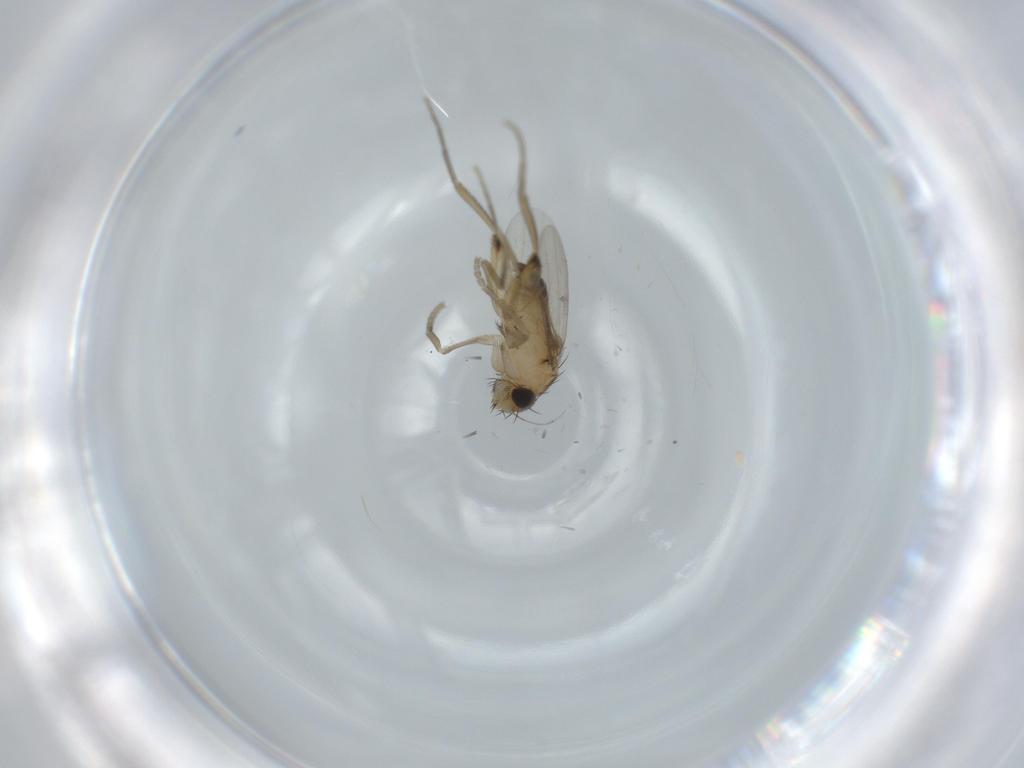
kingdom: Animalia
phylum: Arthropoda
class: Insecta
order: Diptera
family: Phoridae
